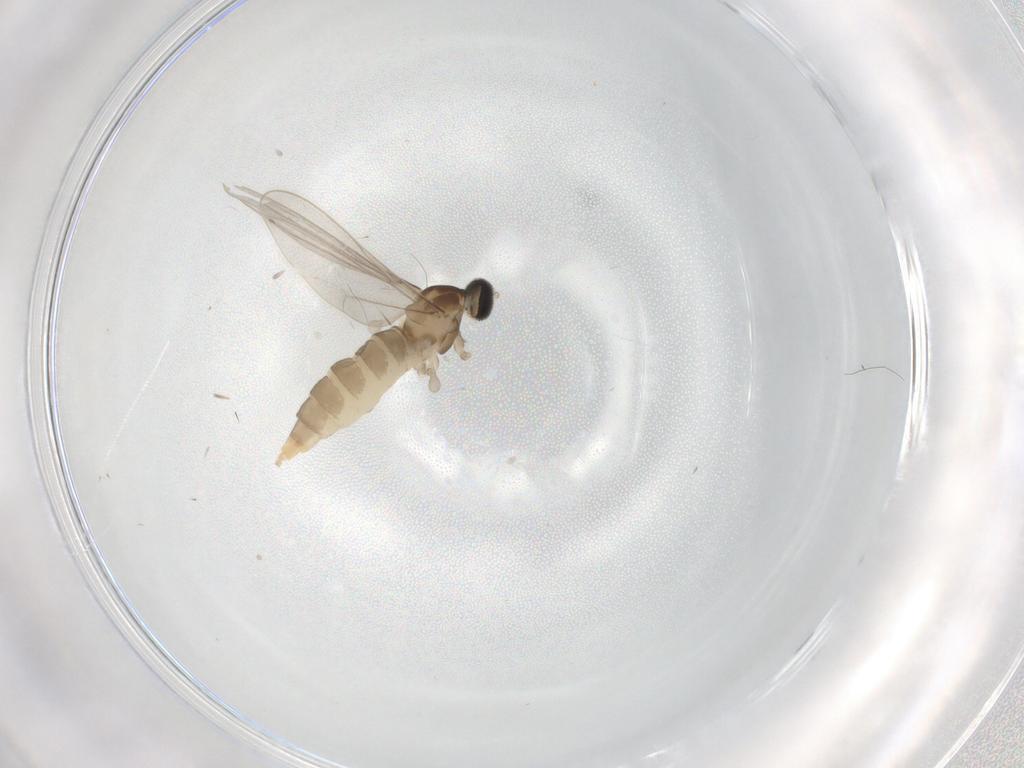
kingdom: Animalia
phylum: Arthropoda
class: Insecta
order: Diptera
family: Cecidomyiidae
